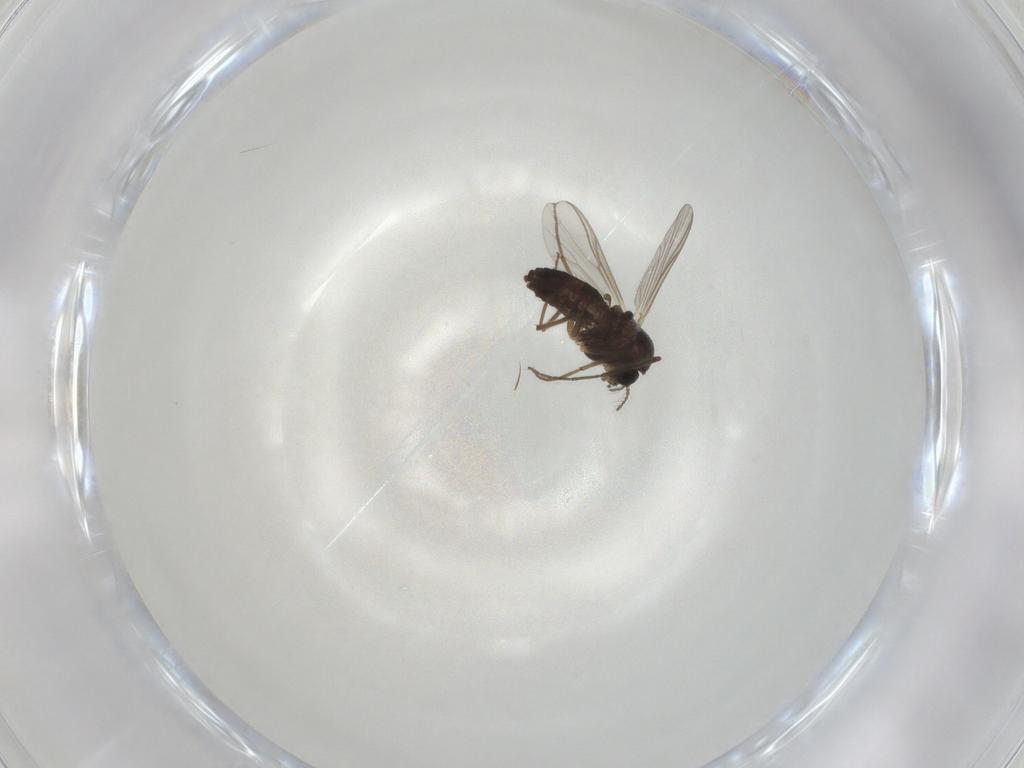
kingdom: Animalia
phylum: Arthropoda
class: Insecta
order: Diptera
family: Chironomidae
